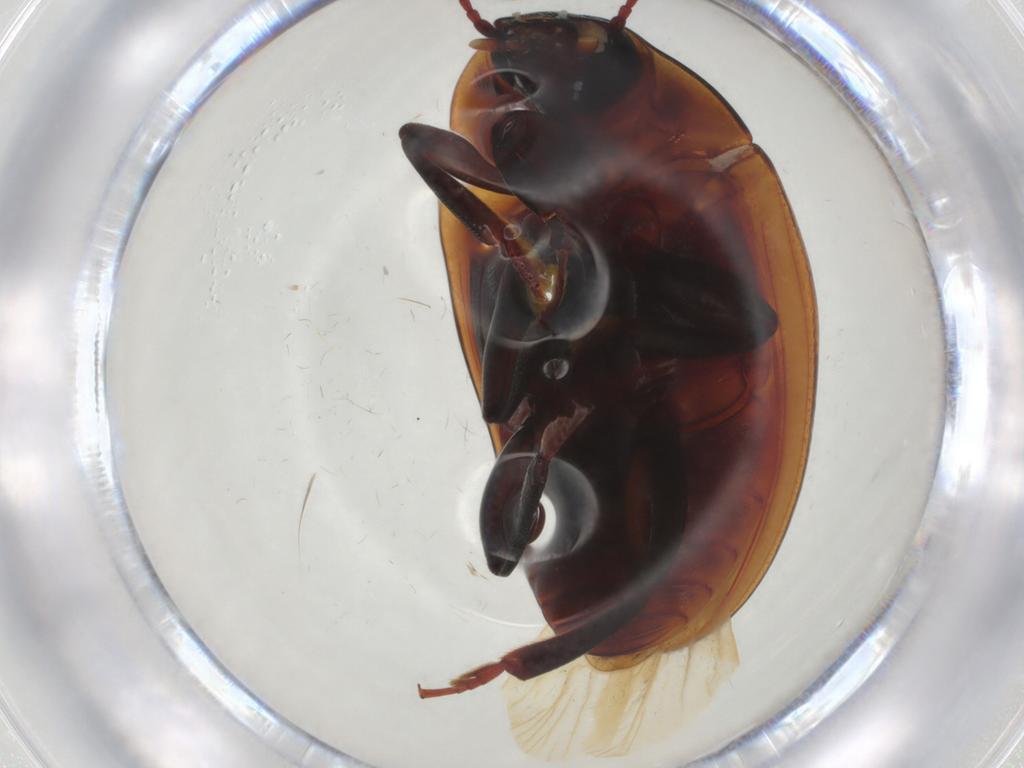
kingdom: Animalia
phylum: Arthropoda
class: Insecta
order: Coleoptera
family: Zopheridae
